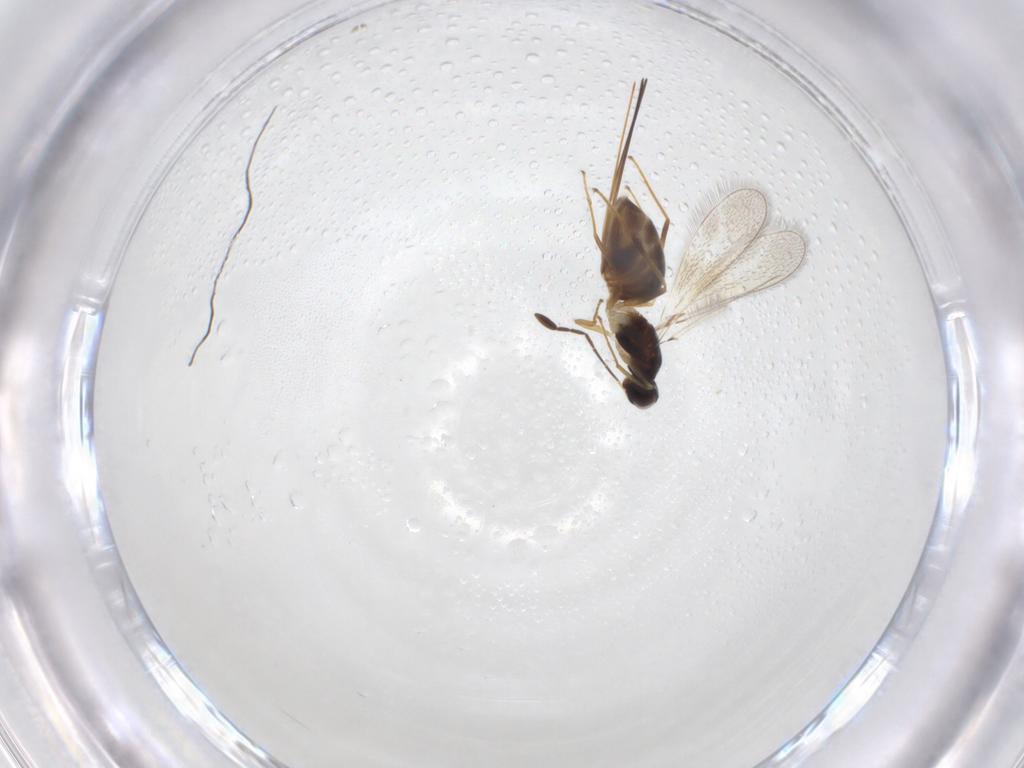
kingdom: Animalia
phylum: Arthropoda
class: Insecta
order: Hymenoptera
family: Mymaridae
